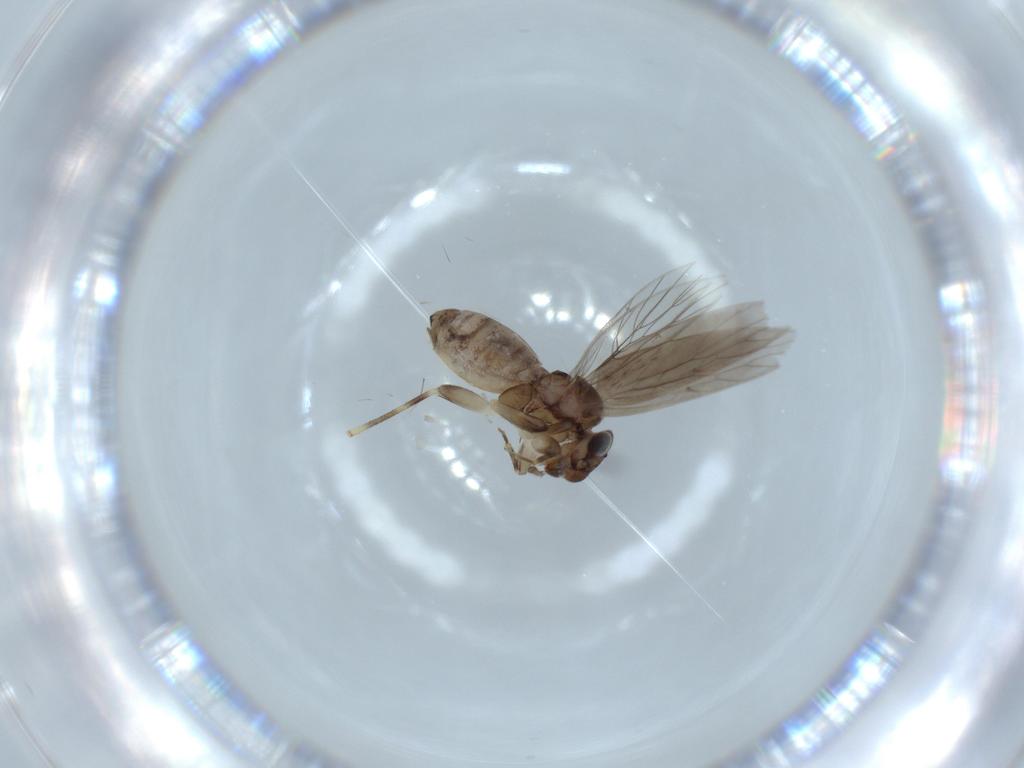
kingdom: Animalia
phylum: Arthropoda
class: Insecta
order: Psocodea
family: Lepidopsocidae
